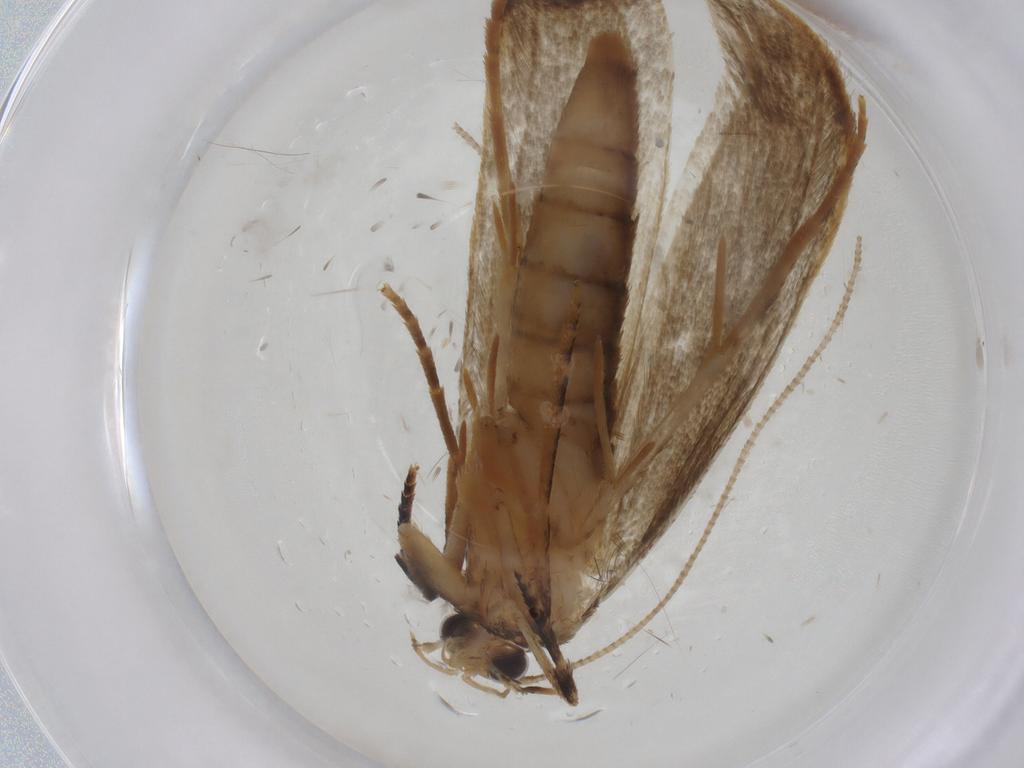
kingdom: Animalia
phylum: Arthropoda
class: Insecta
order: Lepidoptera
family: Tineidae
